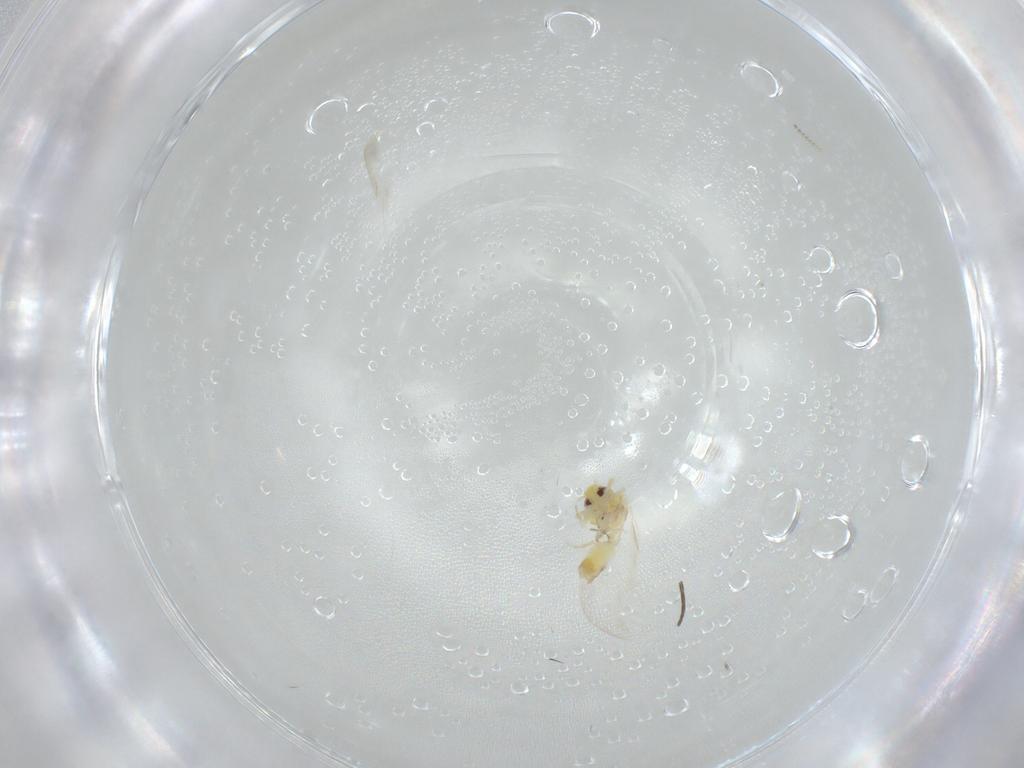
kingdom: Animalia
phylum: Arthropoda
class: Insecta
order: Hemiptera
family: Aleyrodidae
